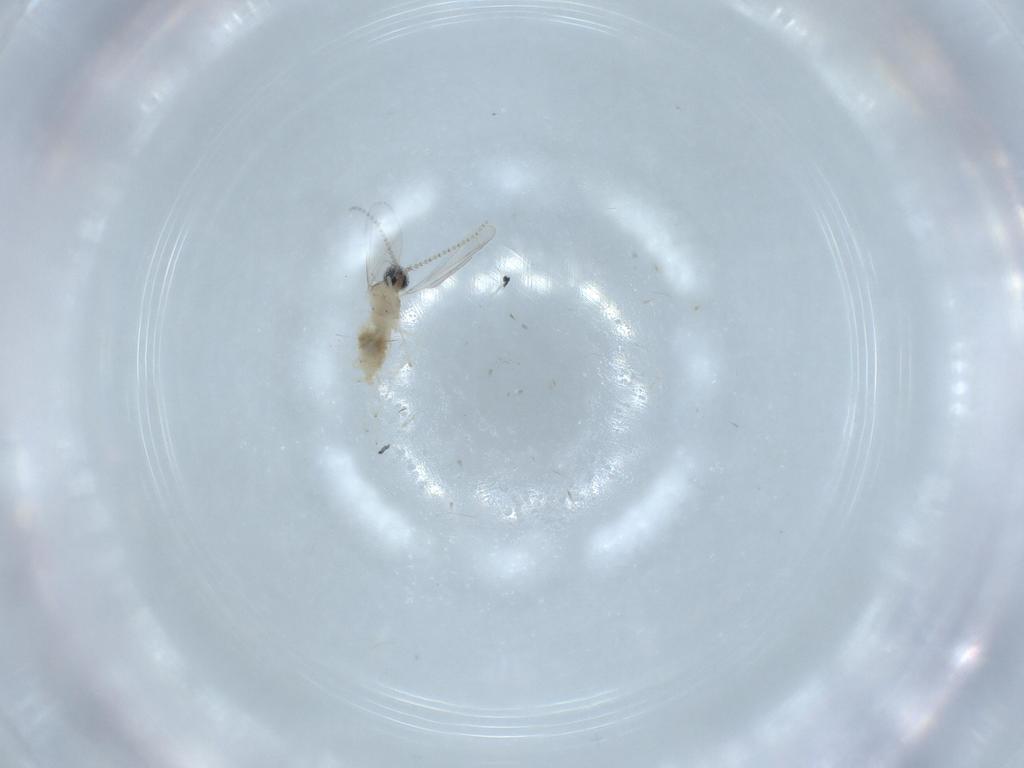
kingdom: Animalia
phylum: Arthropoda
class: Insecta
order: Diptera
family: Cecidomyiidae
